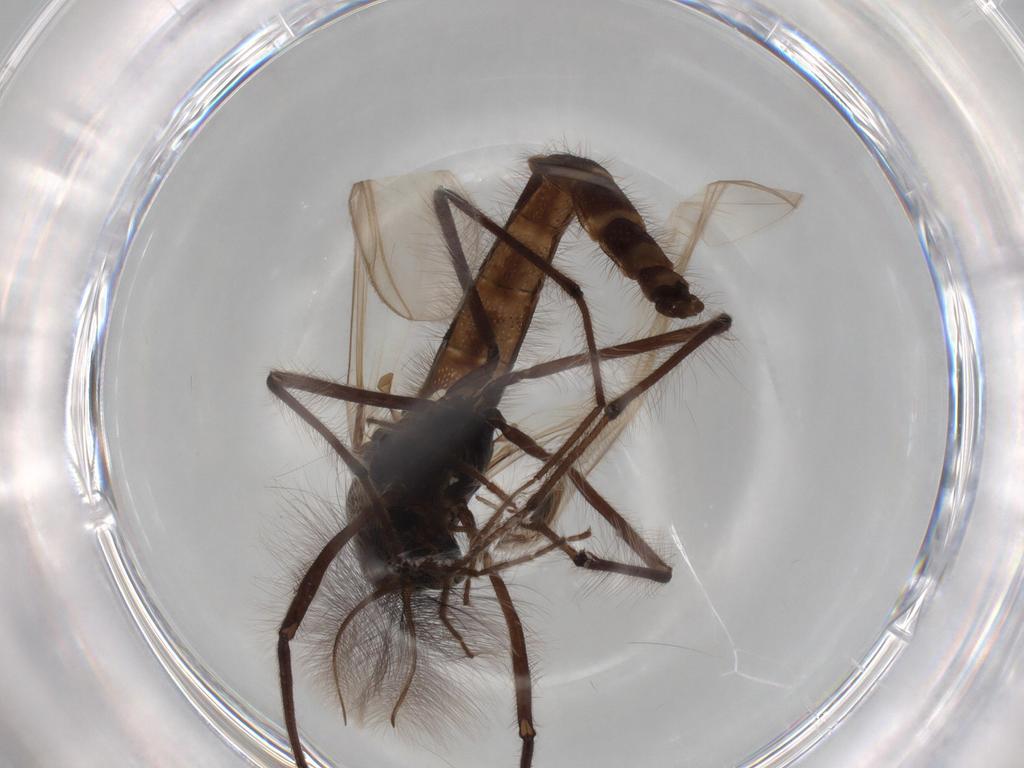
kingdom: Animalia
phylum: Arthropoda
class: Insecta
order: Diptera
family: Chironomidae
